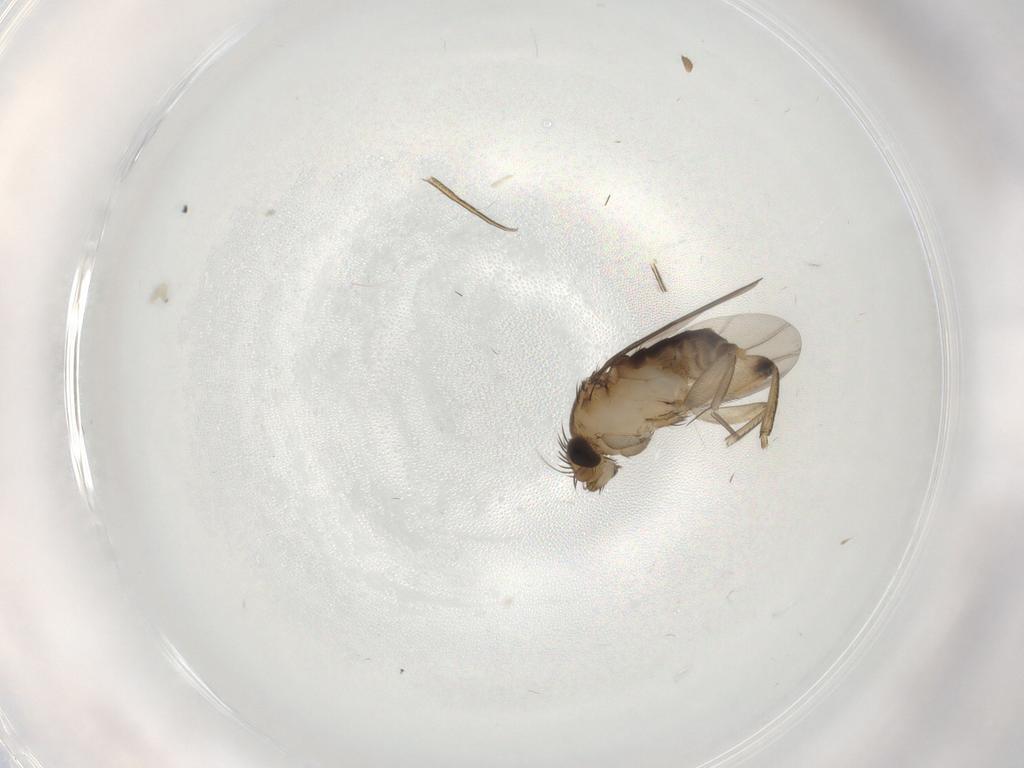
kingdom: Animalia
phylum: Arthropoda
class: Insecta
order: Diptera
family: Phoridae
